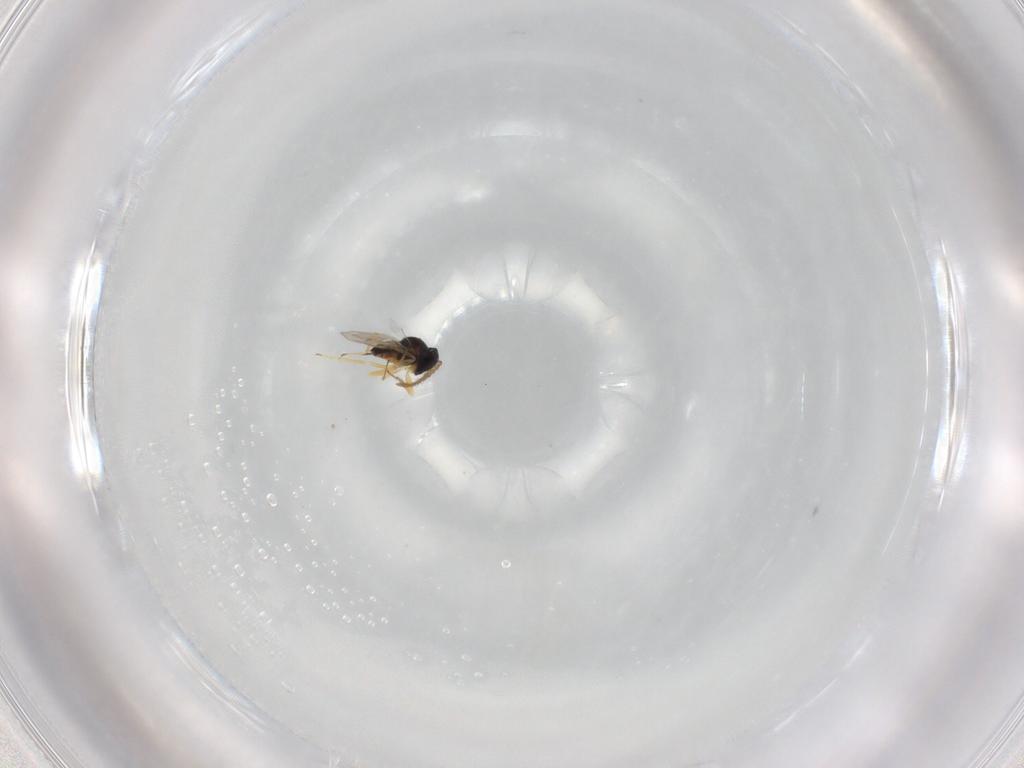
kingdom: Animalia
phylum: Arthropoda
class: Insecta
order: Hymenoptera
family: Encyrtidae
